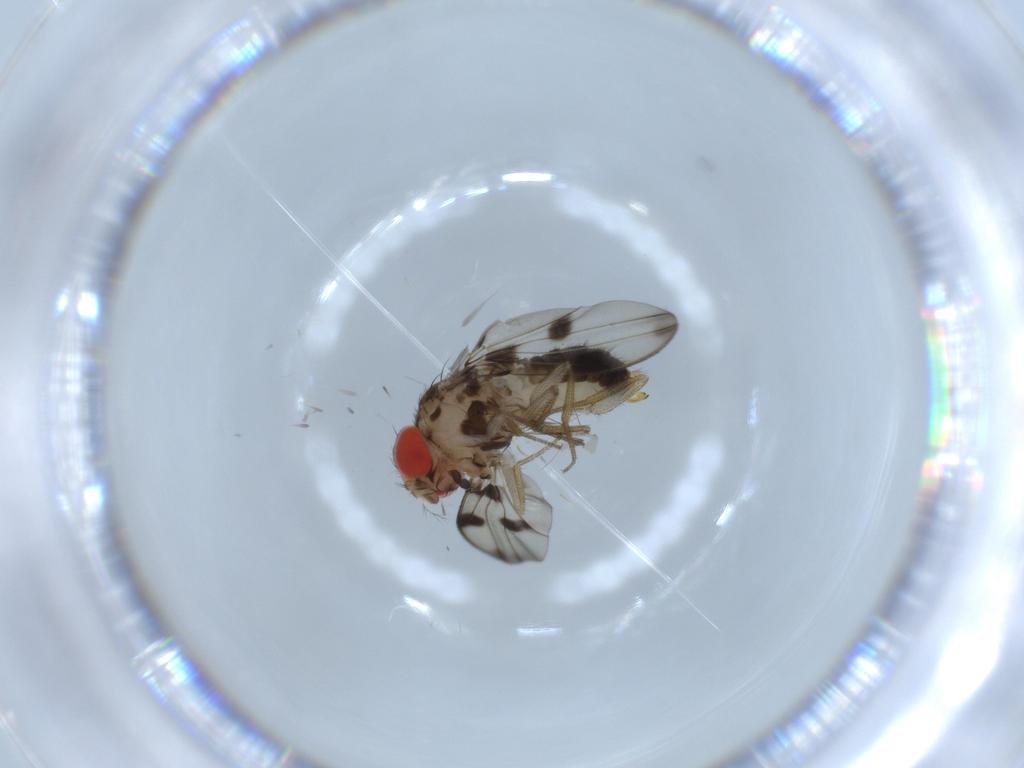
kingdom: Animalia
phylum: Arthropoda
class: Insecta
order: Diptera
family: Drosophilidae
